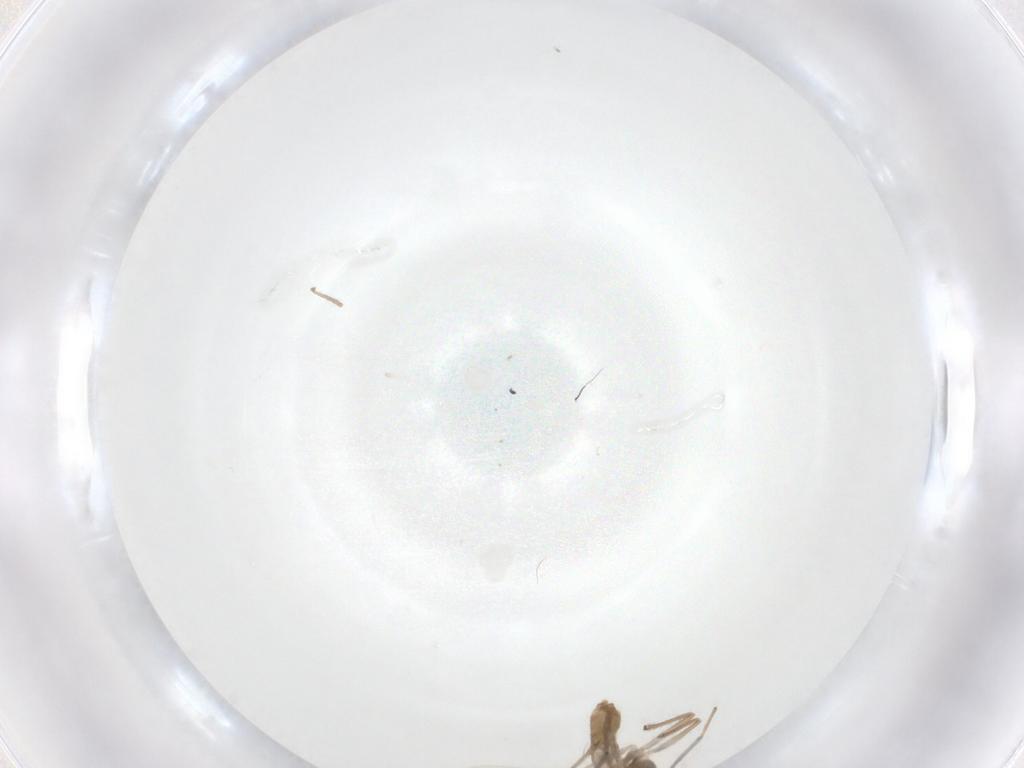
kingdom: Animalia
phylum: Arthropoda
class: Insecta
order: Diptera
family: Chironomidae
